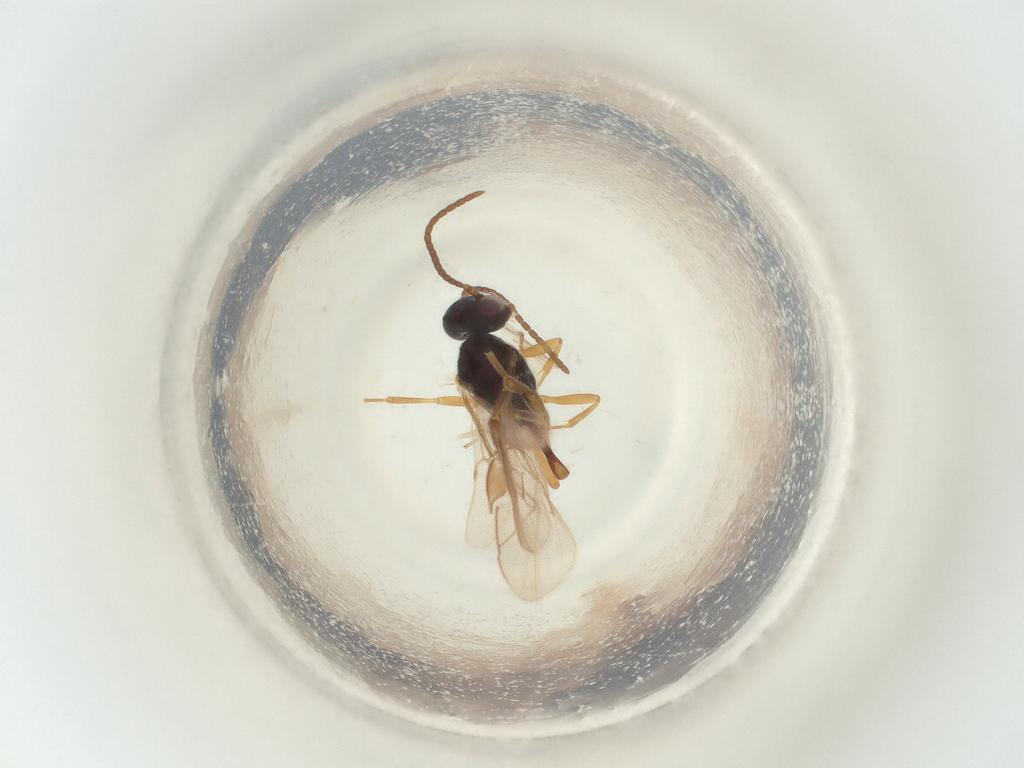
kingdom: Animalia
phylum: Arthropoda
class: Insecta
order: Hymenoptera
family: Ichneumonidae
